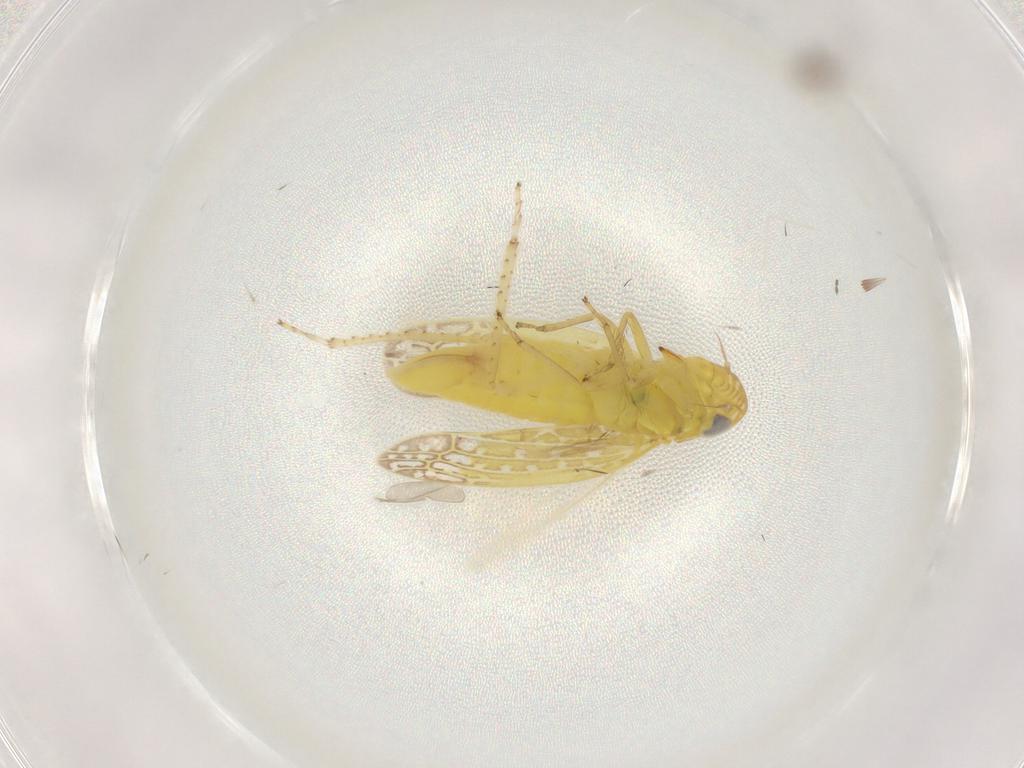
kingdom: Animalia
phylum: Arthropoda
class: Insecta
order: Hemiptera
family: Cicadellidae
